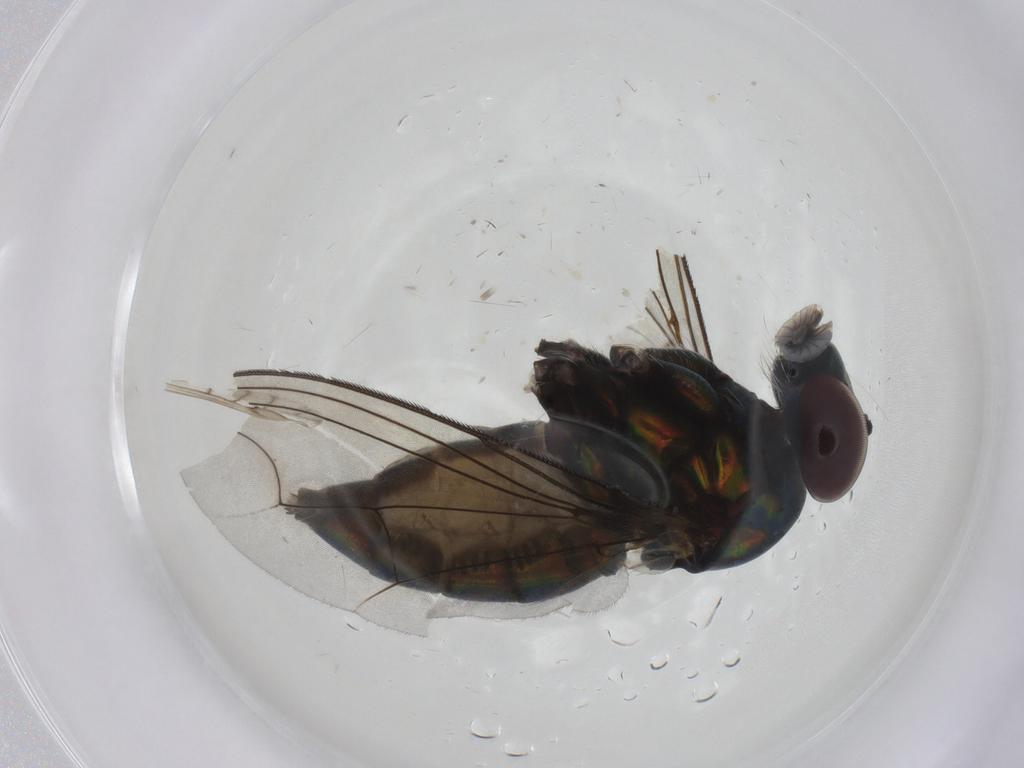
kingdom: Animalia
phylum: Arthropoda
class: Insecta
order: Diptera
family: Dolichopodidae
